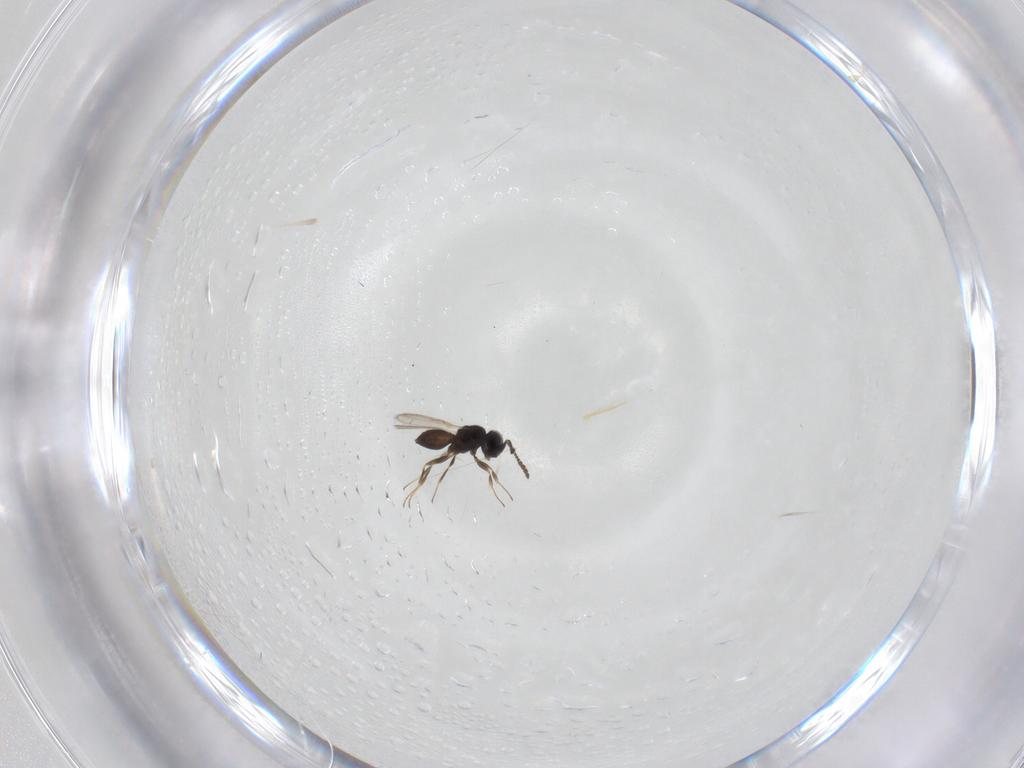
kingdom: Animalia
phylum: Arthropoda
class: Insecta
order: Hymenoptera
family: Scelionidae
